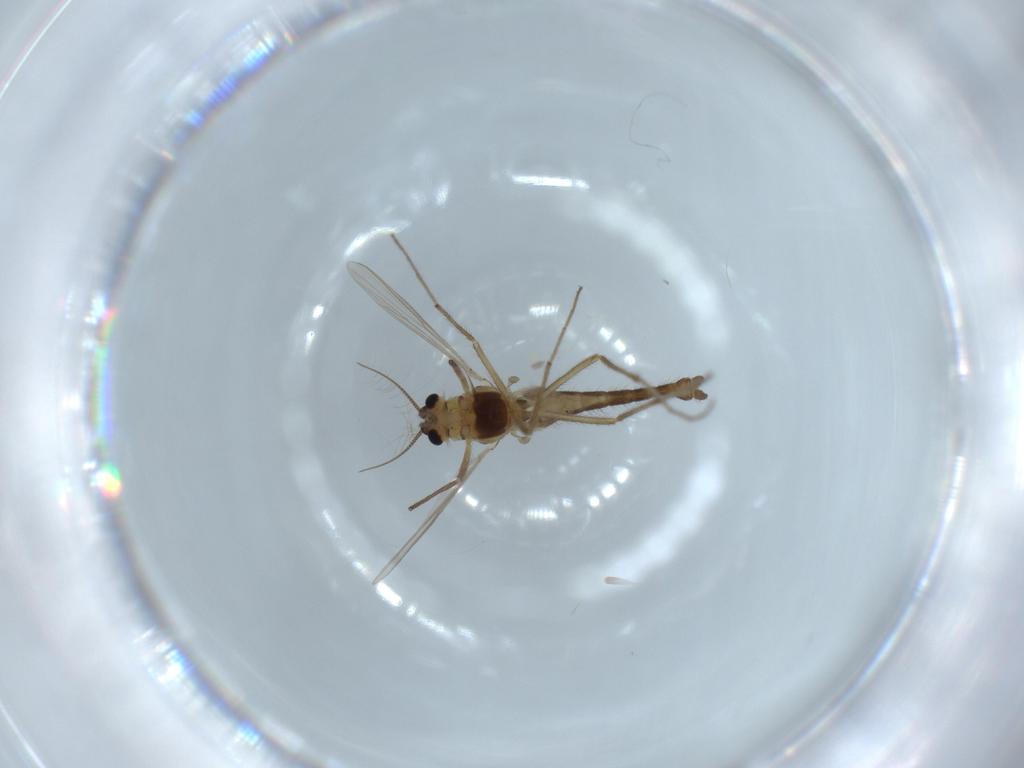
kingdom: Animalia
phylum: Arthropoda
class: Insecta
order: Diptera
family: Chironomidae
